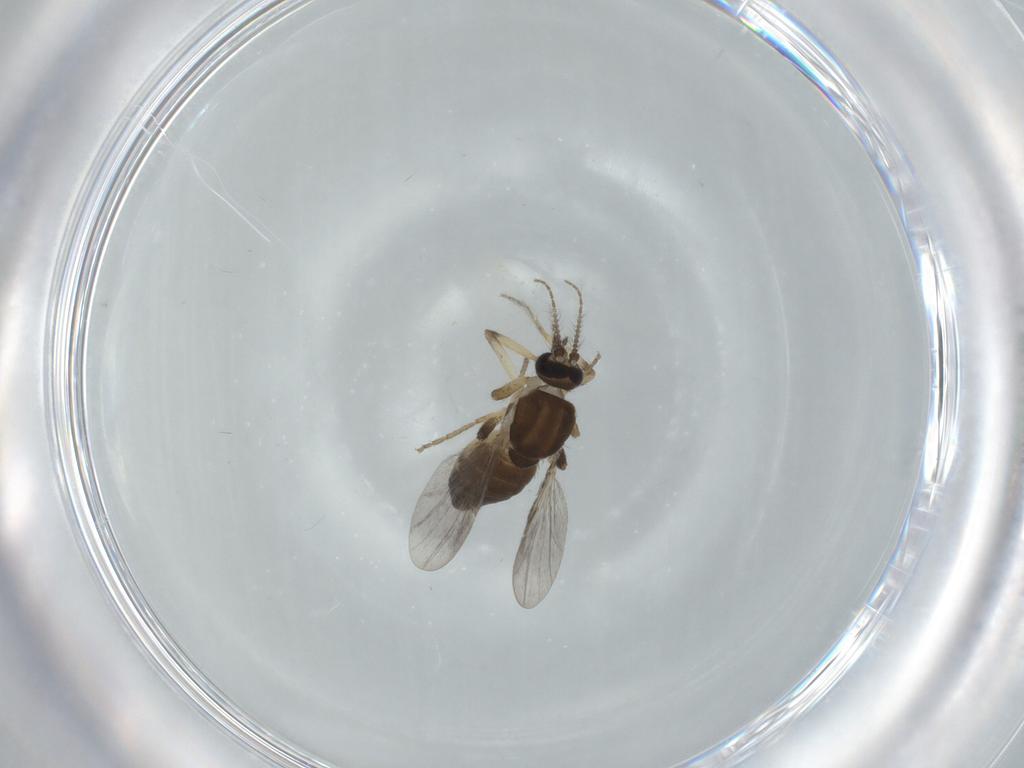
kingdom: Animalia
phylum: Arthropoda
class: Insecta
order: Diptera
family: Ceratopogonidae
